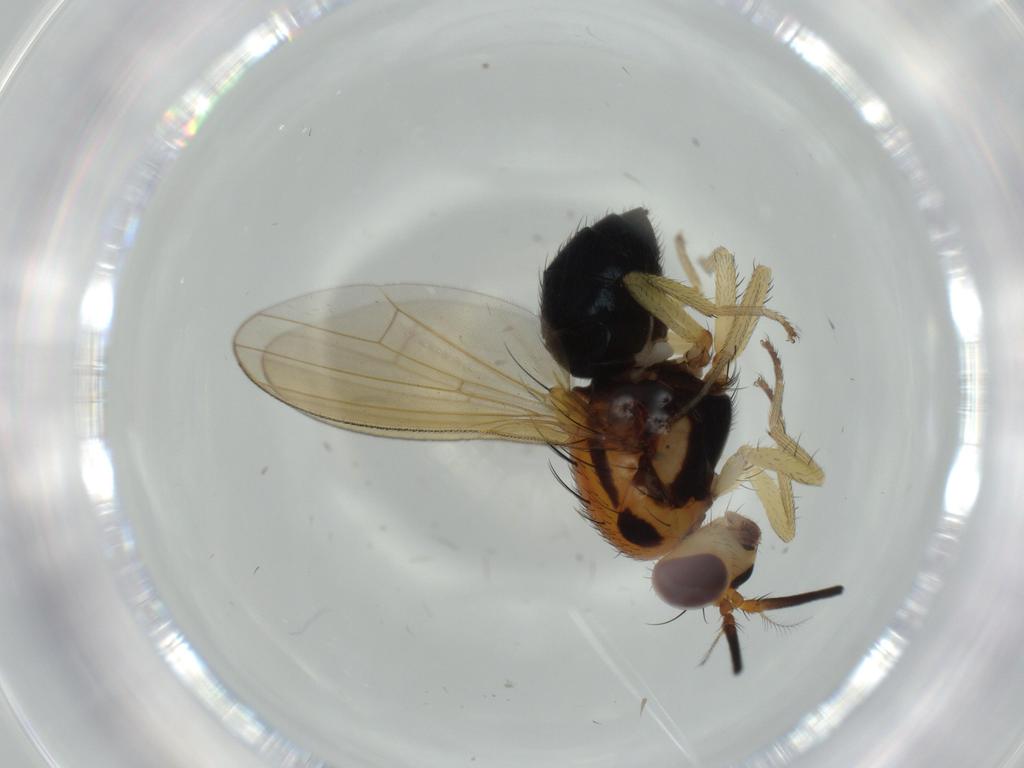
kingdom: Animalia
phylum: Arthropoda
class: Insecta
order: Diptera
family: Lauxaniidae
